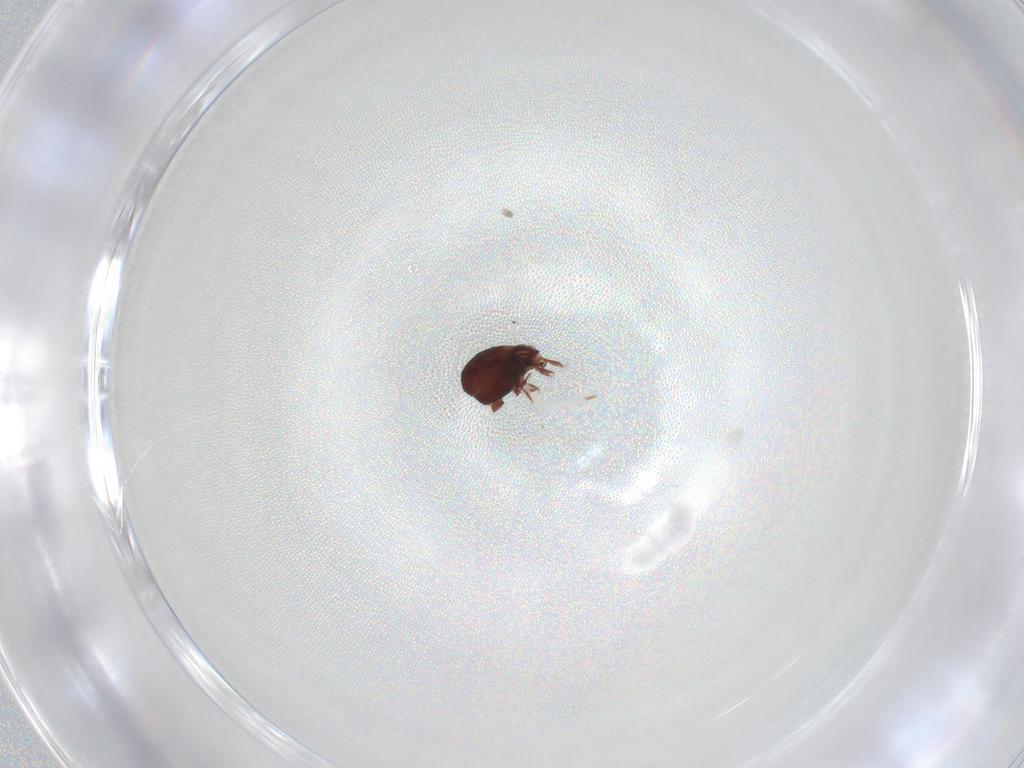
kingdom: Animalia
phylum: Arthropoda
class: Arachnida
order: Sarcoptiformes
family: Humerobatidae
